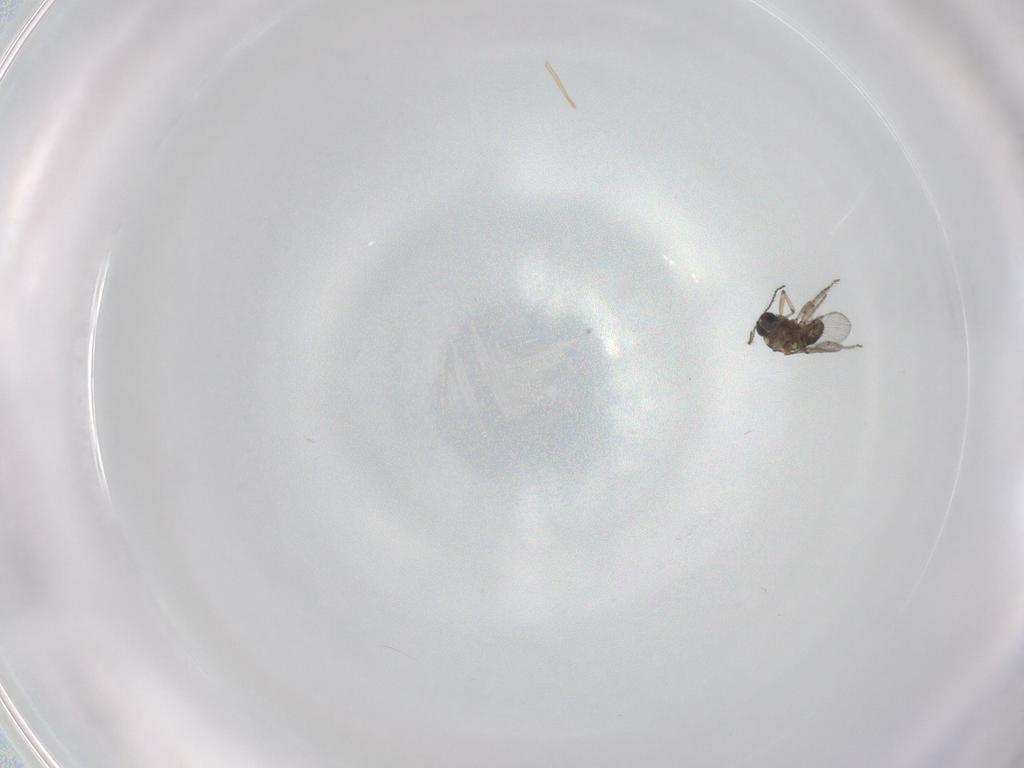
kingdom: Animalia
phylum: Arthropoda
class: Insecta
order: Diptera
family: Ceratopogonidae
